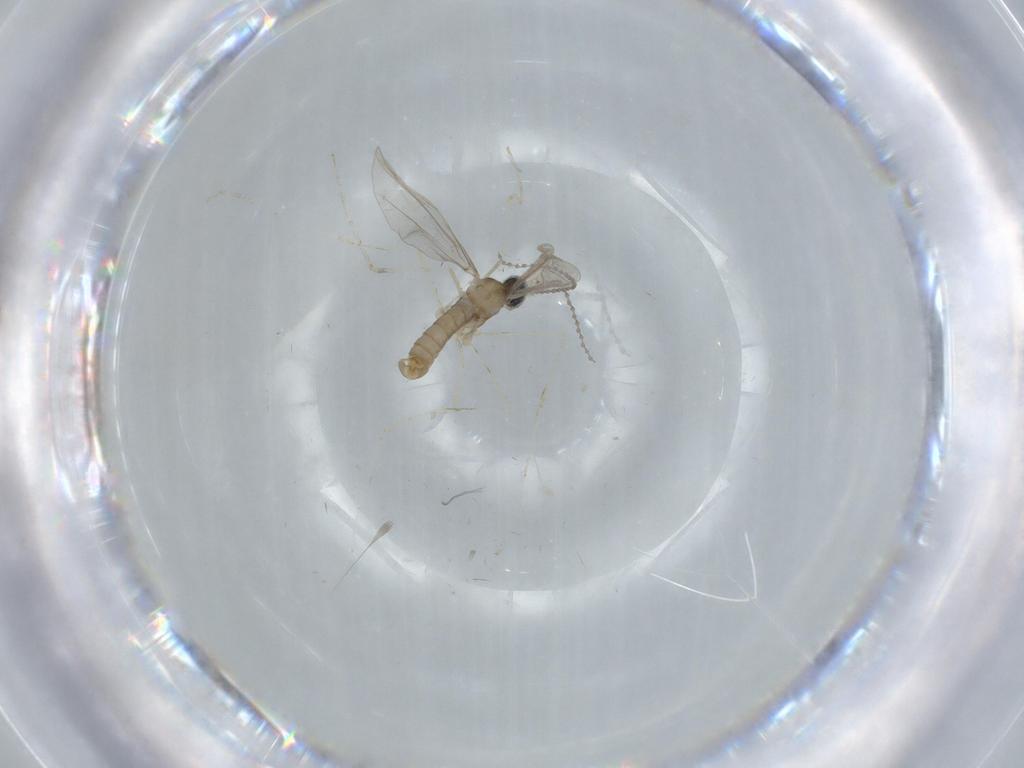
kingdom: Animalia
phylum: Arthropoda
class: Insecta
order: Diptera
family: Cecidomyiidae
